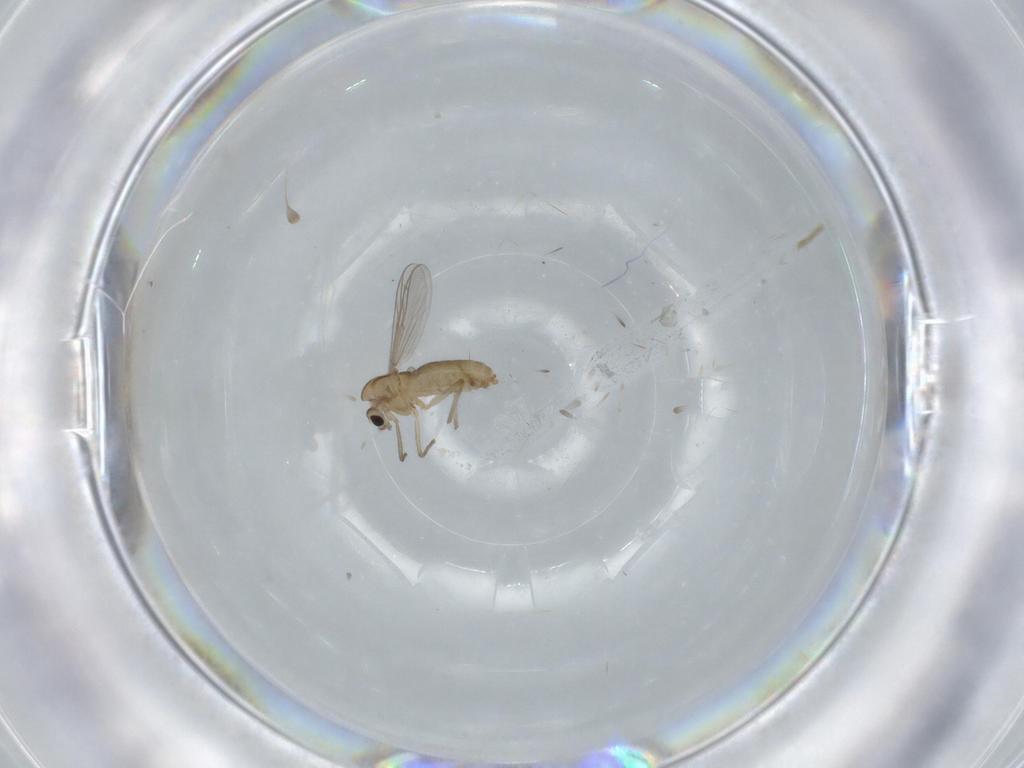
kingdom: Animalia
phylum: Arthropoda
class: Insecta
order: Diptera
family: Chironomidae
